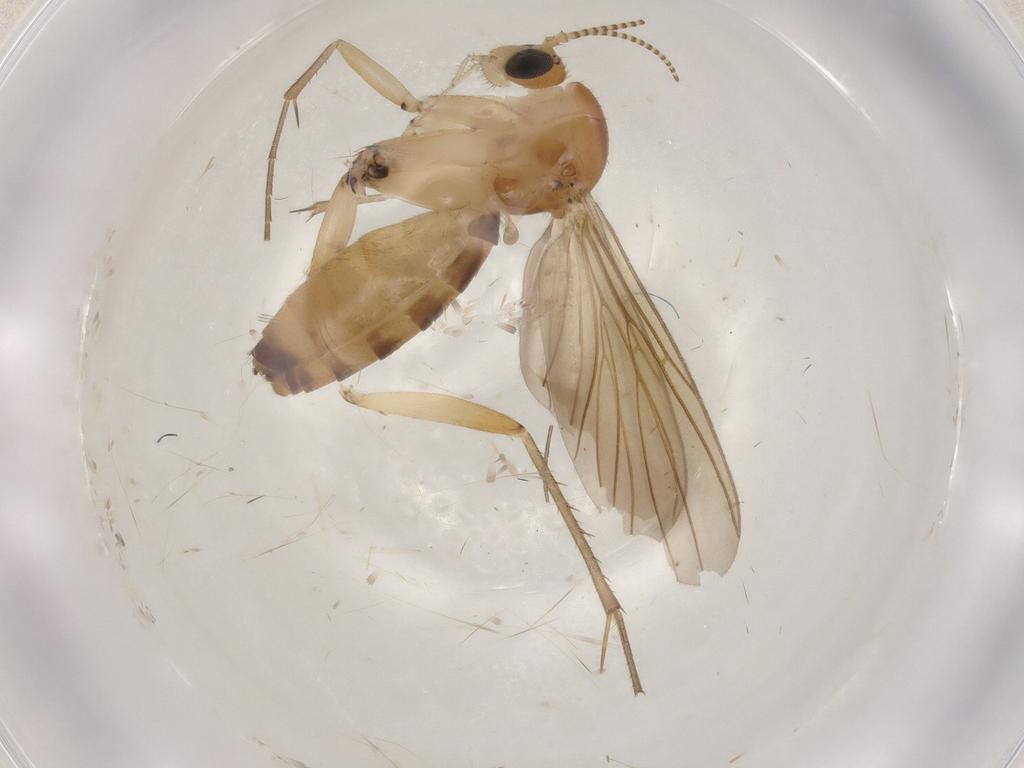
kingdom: Animalia
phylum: Arthropoda
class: Insecta
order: Diptera
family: Mycetophilidae
